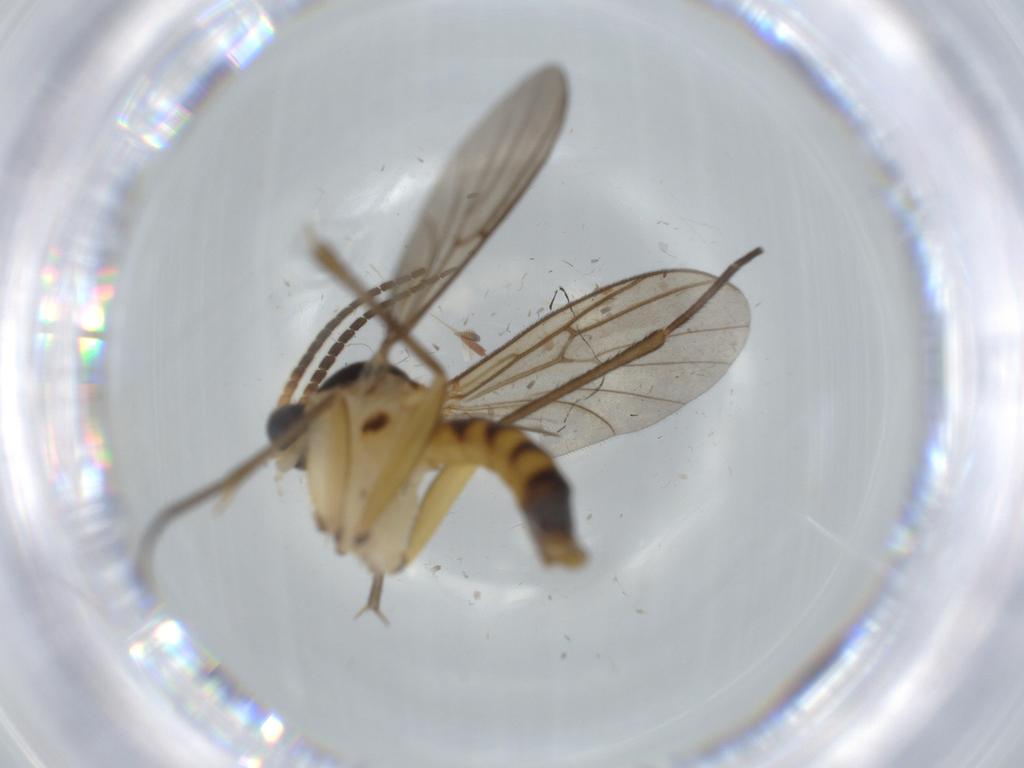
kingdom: Animalia
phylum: Arthropoda
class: Insecta
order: Diptera
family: Ceratopogonidae
